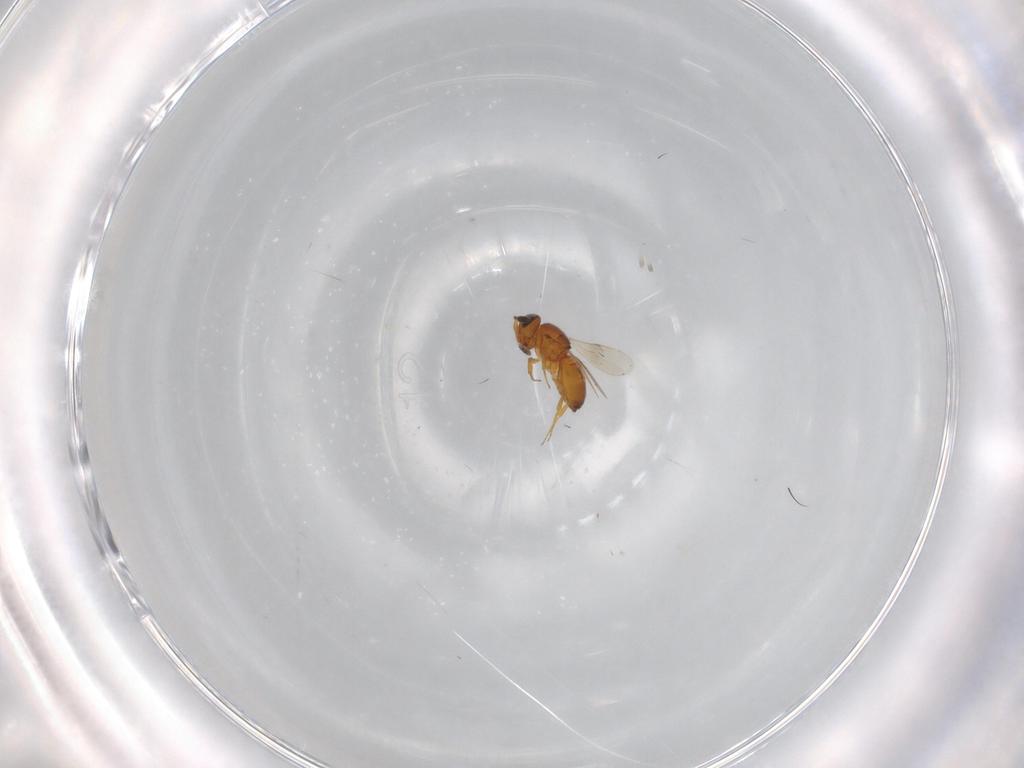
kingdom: Animalia
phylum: Arthropoda
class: Insecta
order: Hymenoptera
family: Scelionidae
